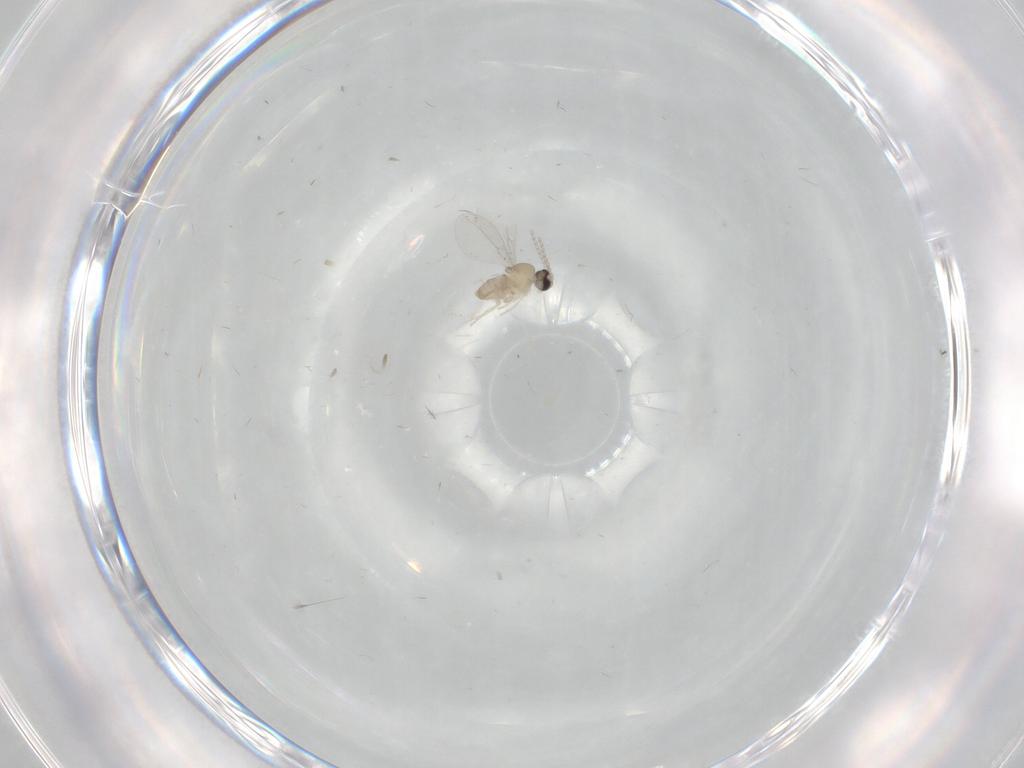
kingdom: Animalia
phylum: Arthropoda
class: Insecta
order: Diptera
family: Cecidomyiidae
